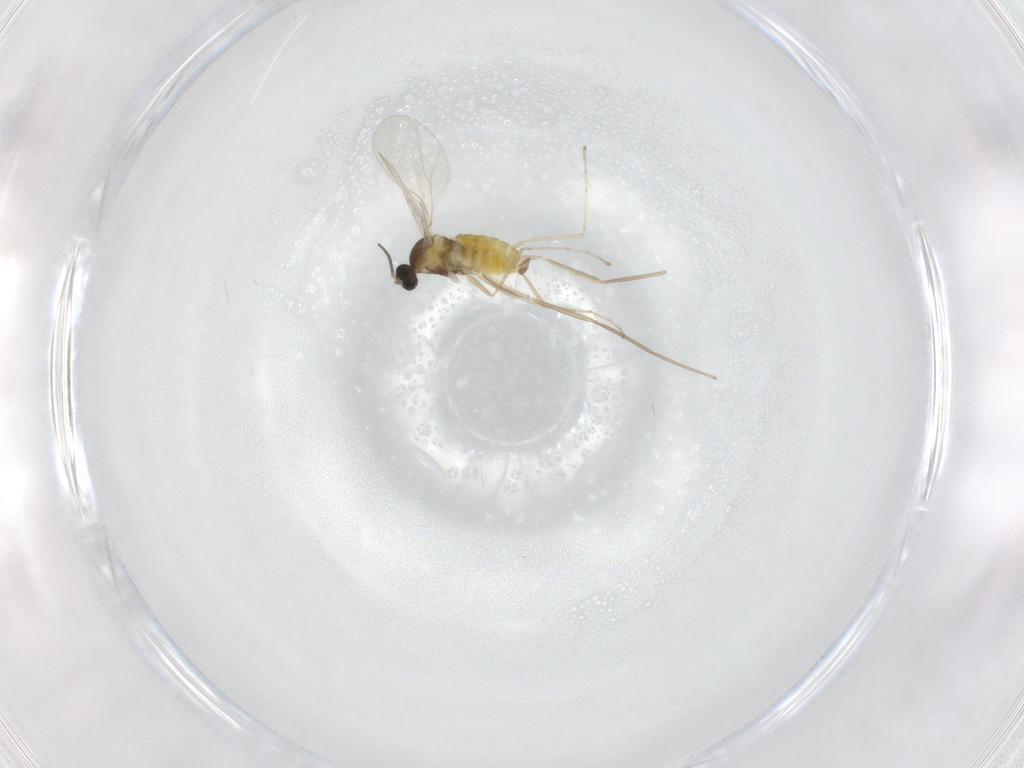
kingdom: Animalia
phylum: Arthropoda
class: Insecta
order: Diptera
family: Cecidomyiidae
